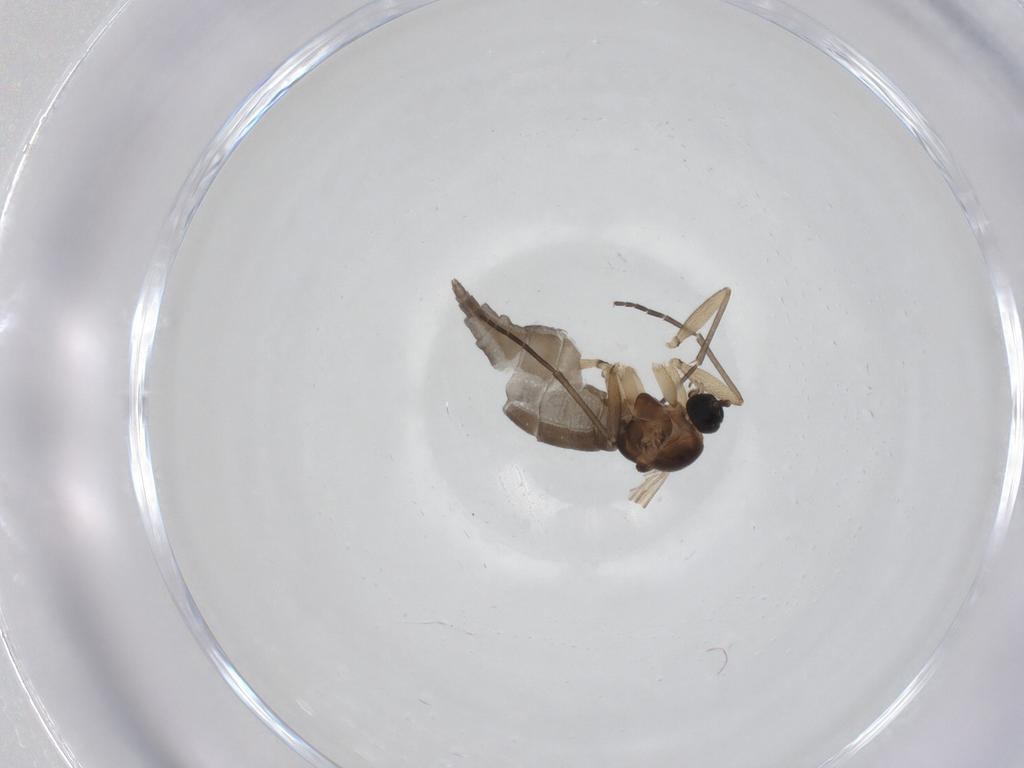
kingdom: Animalia
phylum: Arthropoda
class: Insecta
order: Diptera
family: Sciaridae
